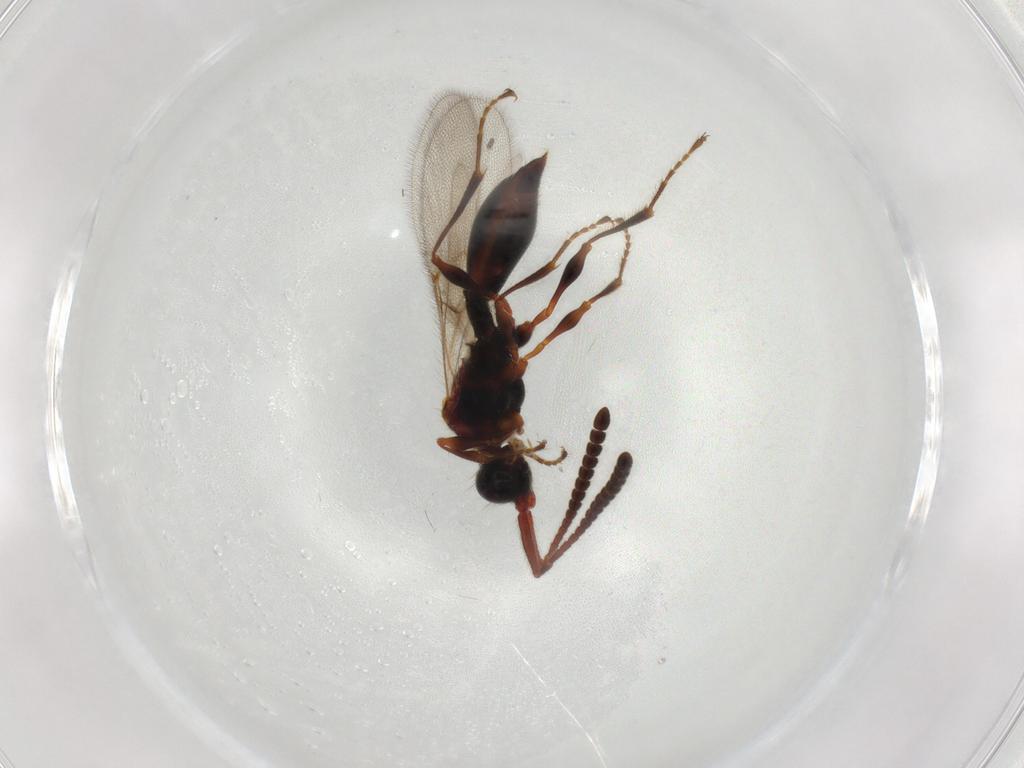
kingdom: Animalia
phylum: Arthropoda
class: Insecta
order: Hymenoptera
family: Diapriidae
